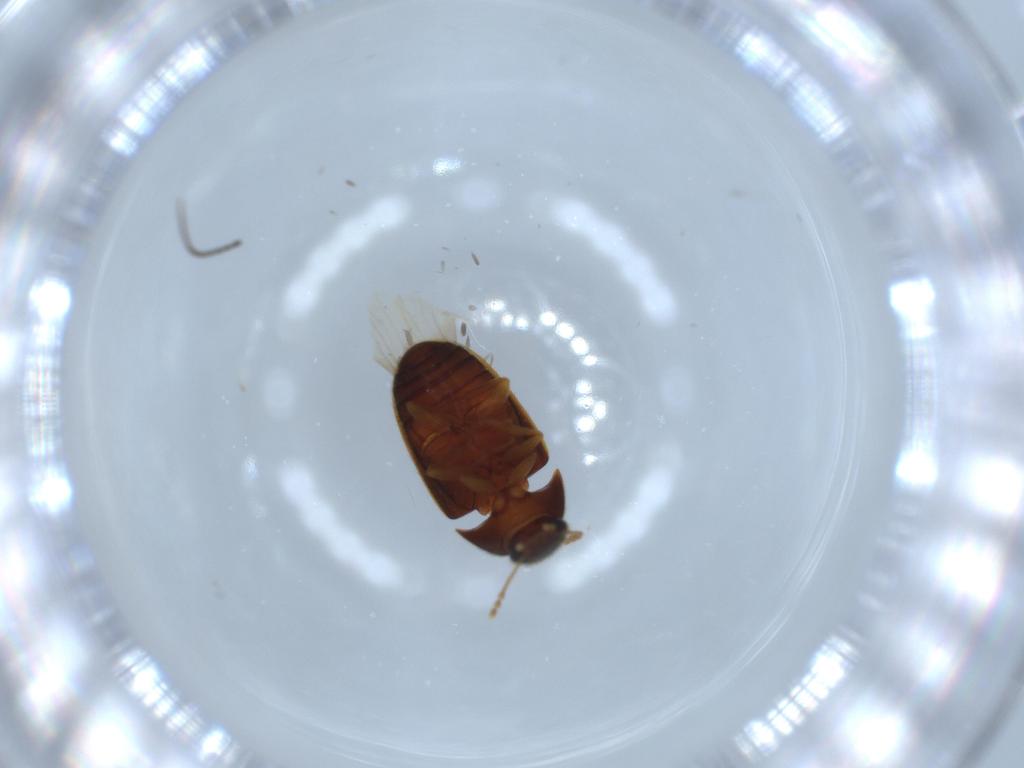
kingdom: Animalia
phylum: Arthropoda
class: Insecta
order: Coleoptera
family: Mycetophagidae
